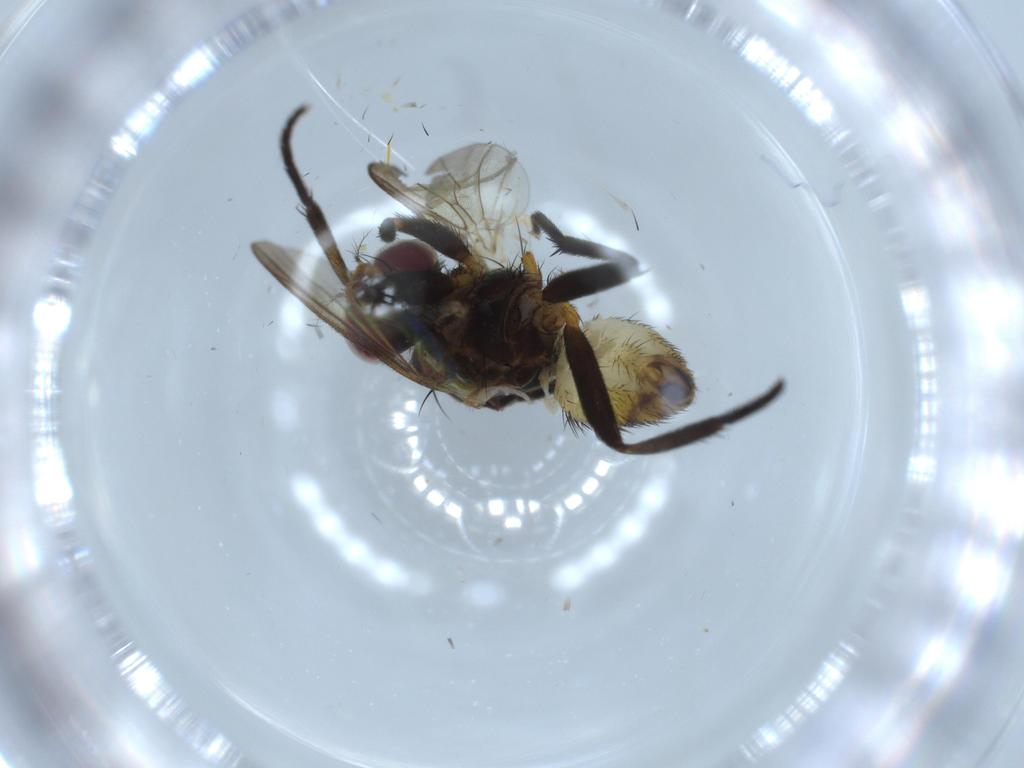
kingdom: Animalia
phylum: Arthropoda
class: Insecta
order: Diptera
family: Anthomyiidae
